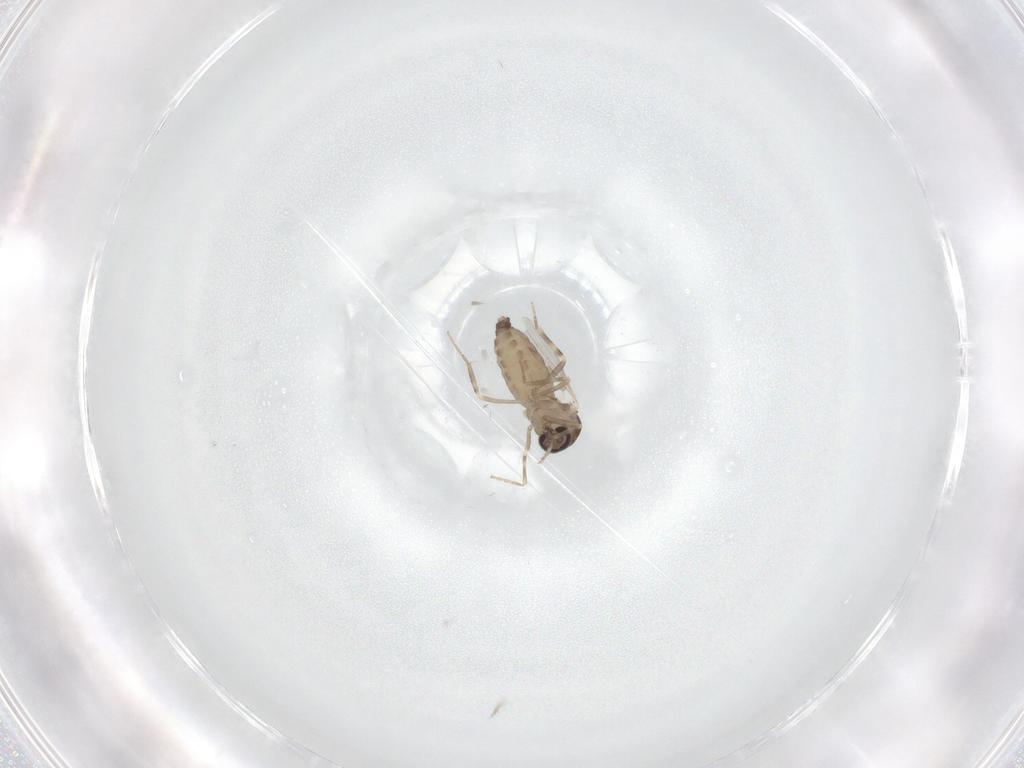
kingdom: Animalia
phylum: Arthropoda
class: Insecta
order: Diptera
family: Ceratopogonidae
